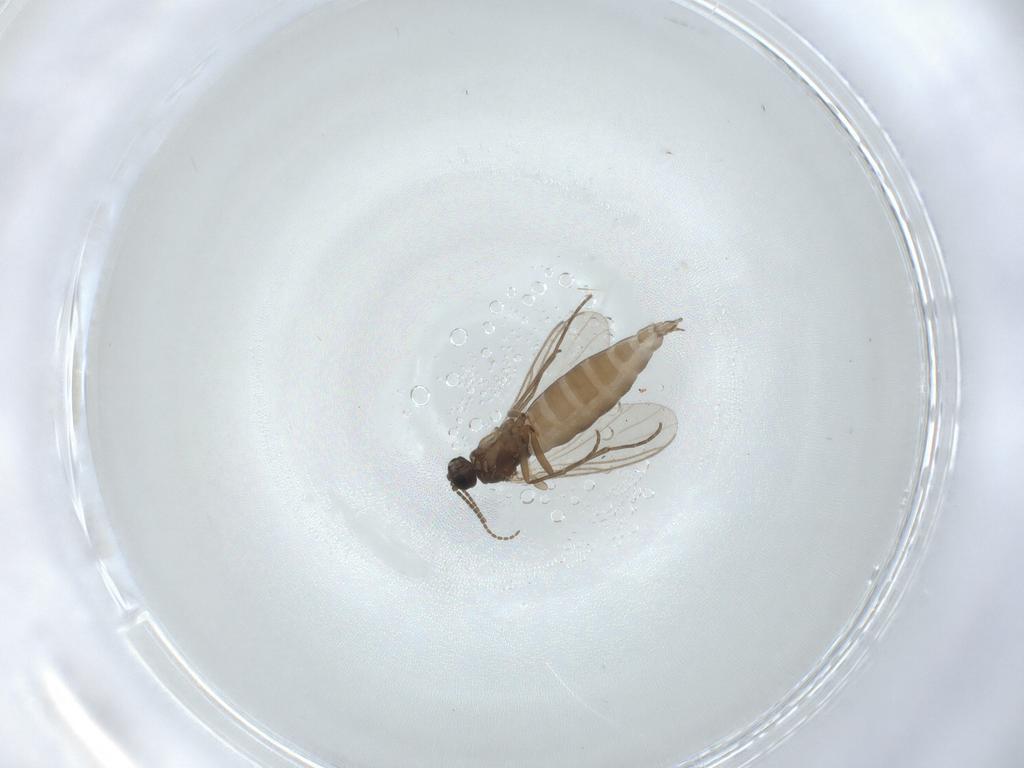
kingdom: Animalia
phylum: Arthropoda
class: Insecta
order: Diptera
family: Sciaridae
